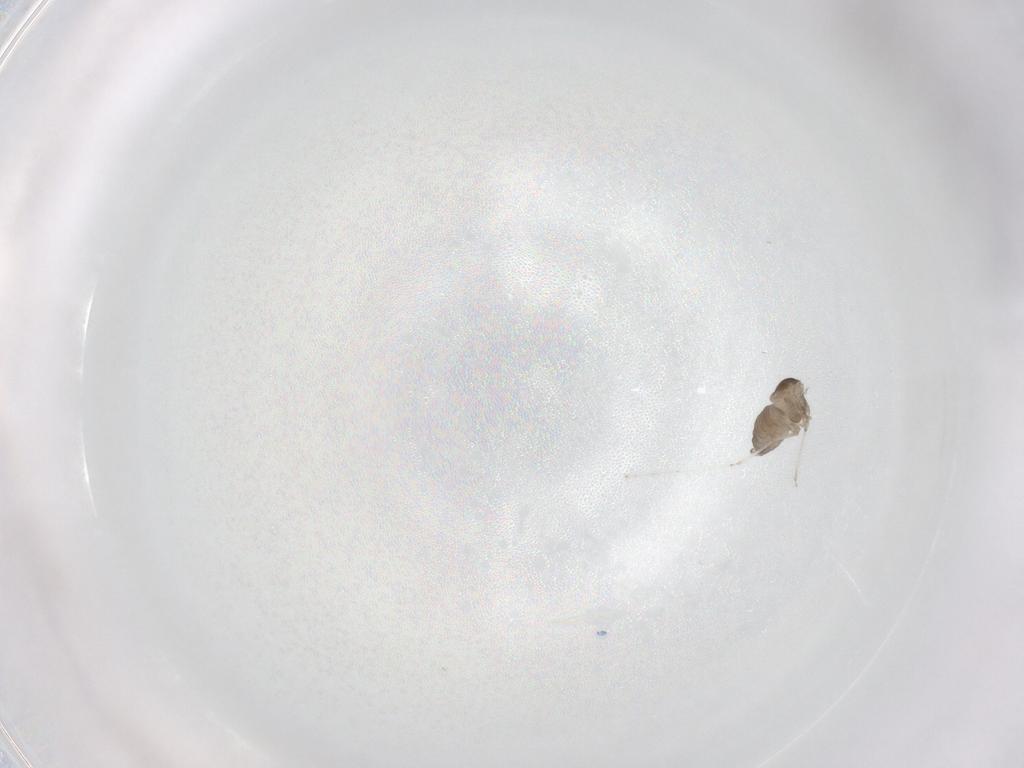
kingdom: Animalia
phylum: Arthropoda
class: Insecta
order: Diptera
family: Cecidomyiidae
